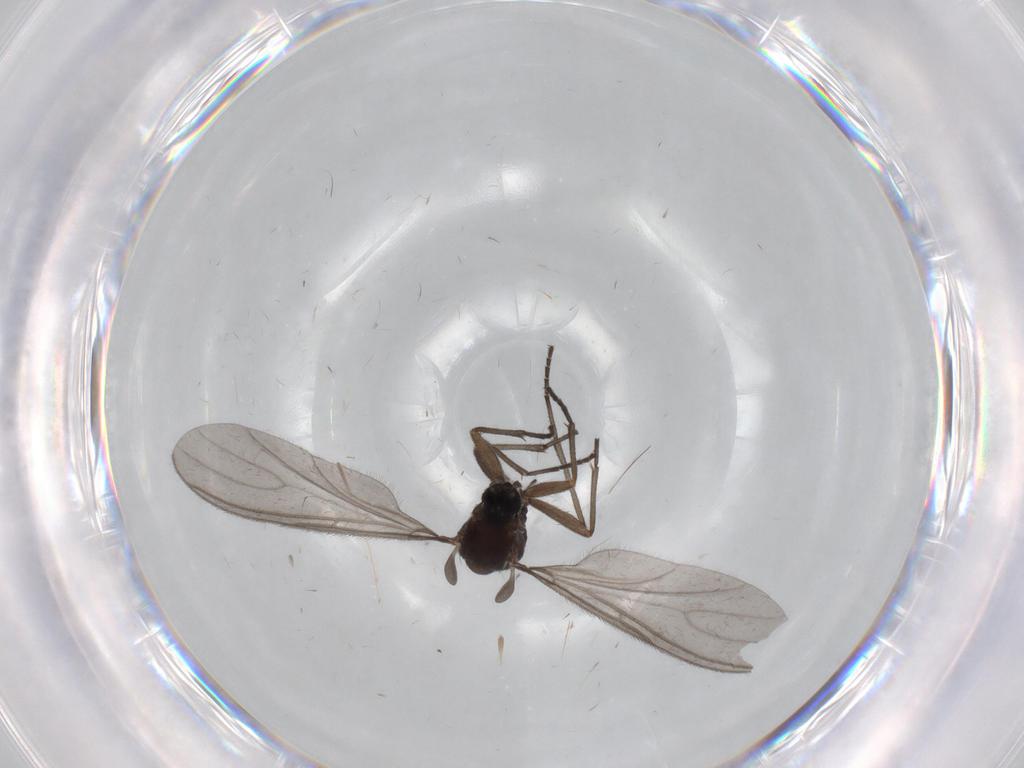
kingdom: Animalia
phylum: Arthropoda
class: Insecta
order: Diptera
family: Sciaridae
